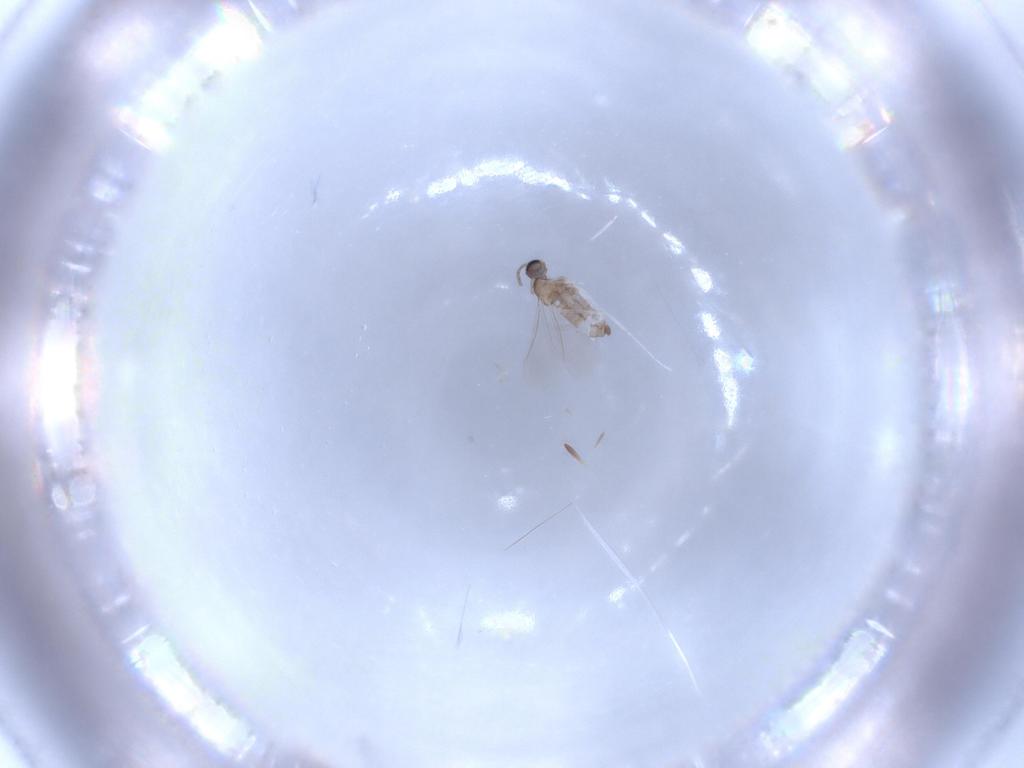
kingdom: Animalia
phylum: Arthropoda
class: Insecta
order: Diptera
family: Cecidomyiidae
